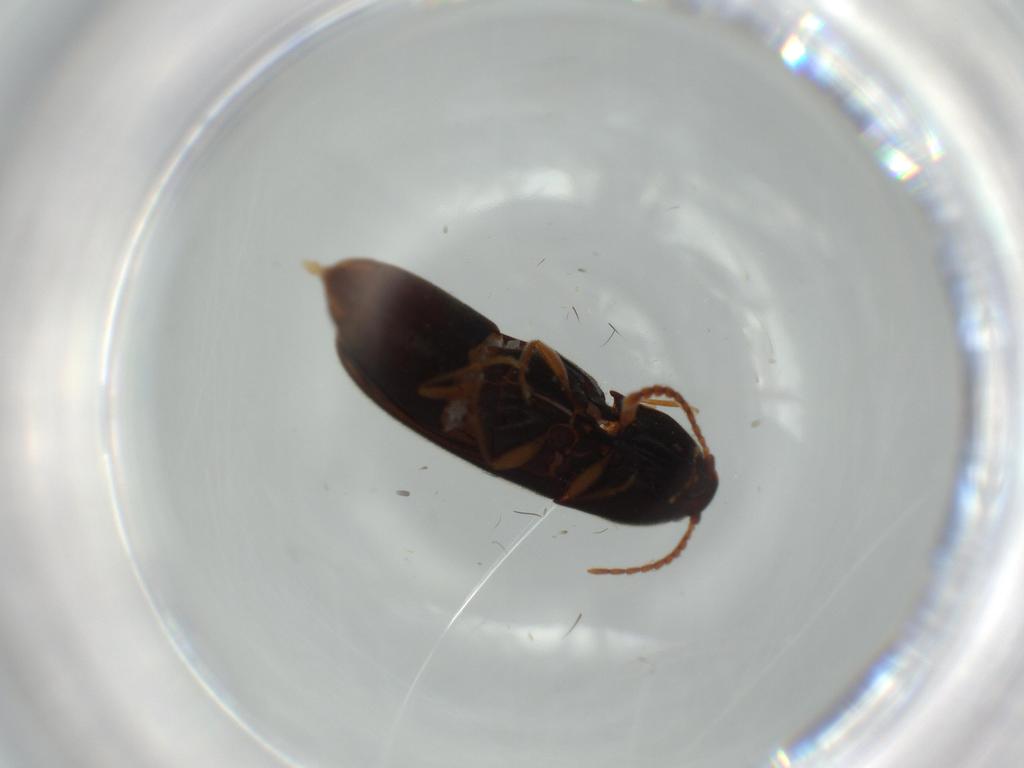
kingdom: Animalia
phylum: Arthropoda
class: Insecta
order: Coleoptera
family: Elateridae
